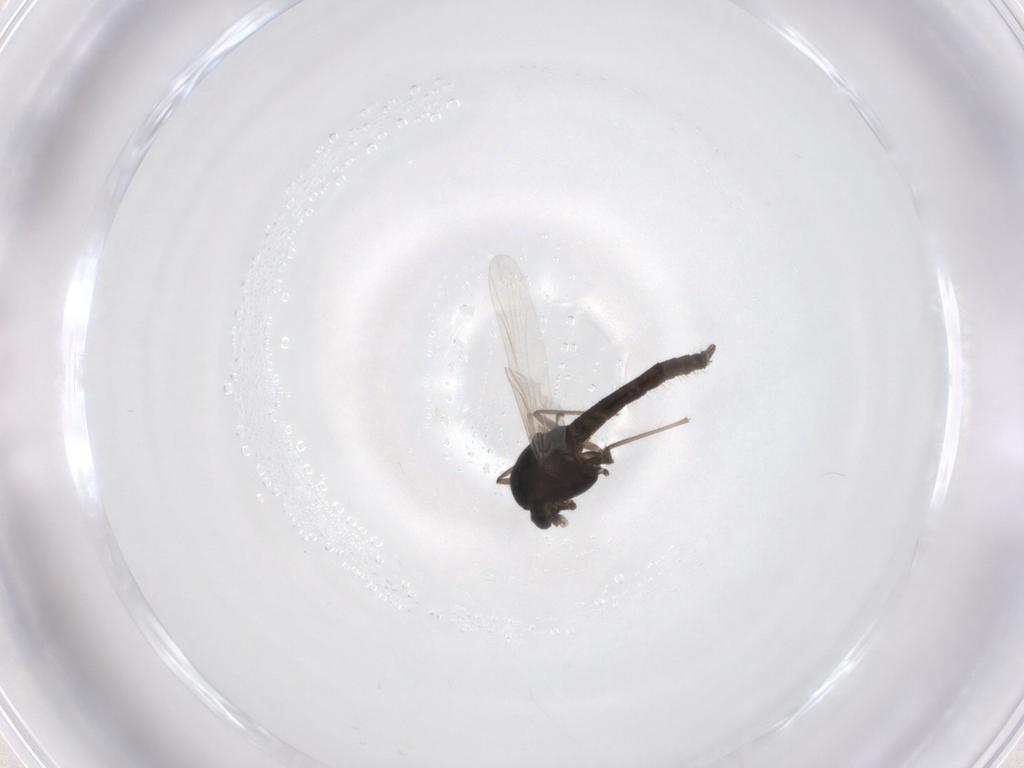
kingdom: Animalia
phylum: Arthropoda
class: Insecta
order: Diptera
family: Chironomidae
